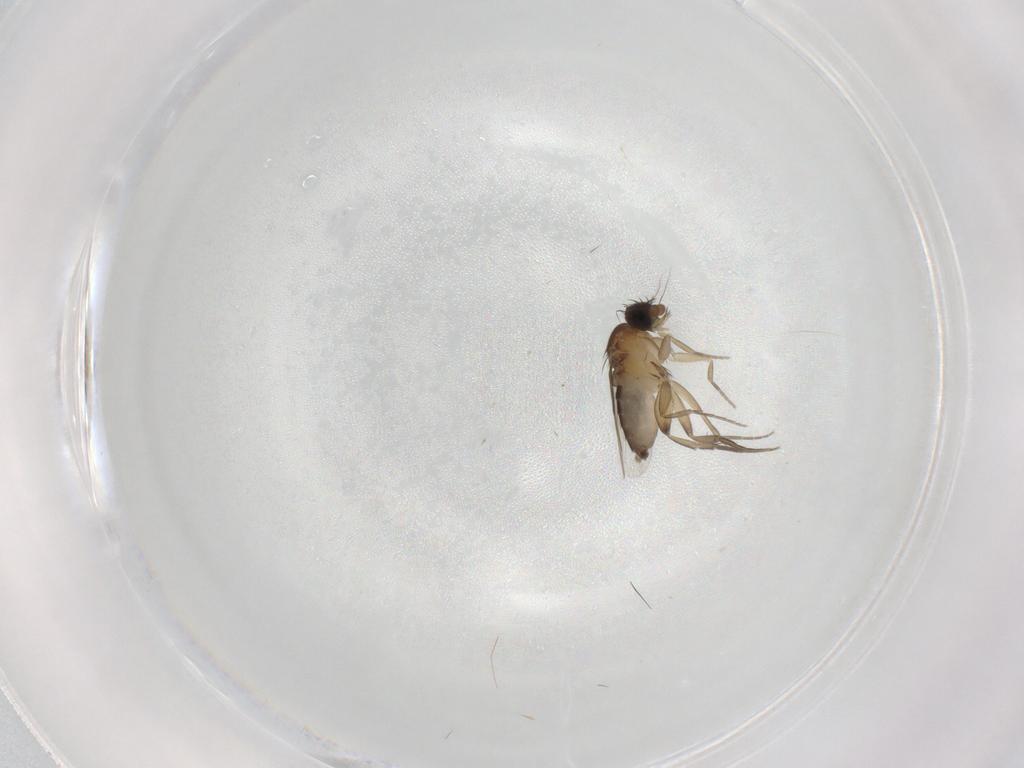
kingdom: Animalia
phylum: Arthropoda
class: Insecta
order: Diptera
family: Phoridae
